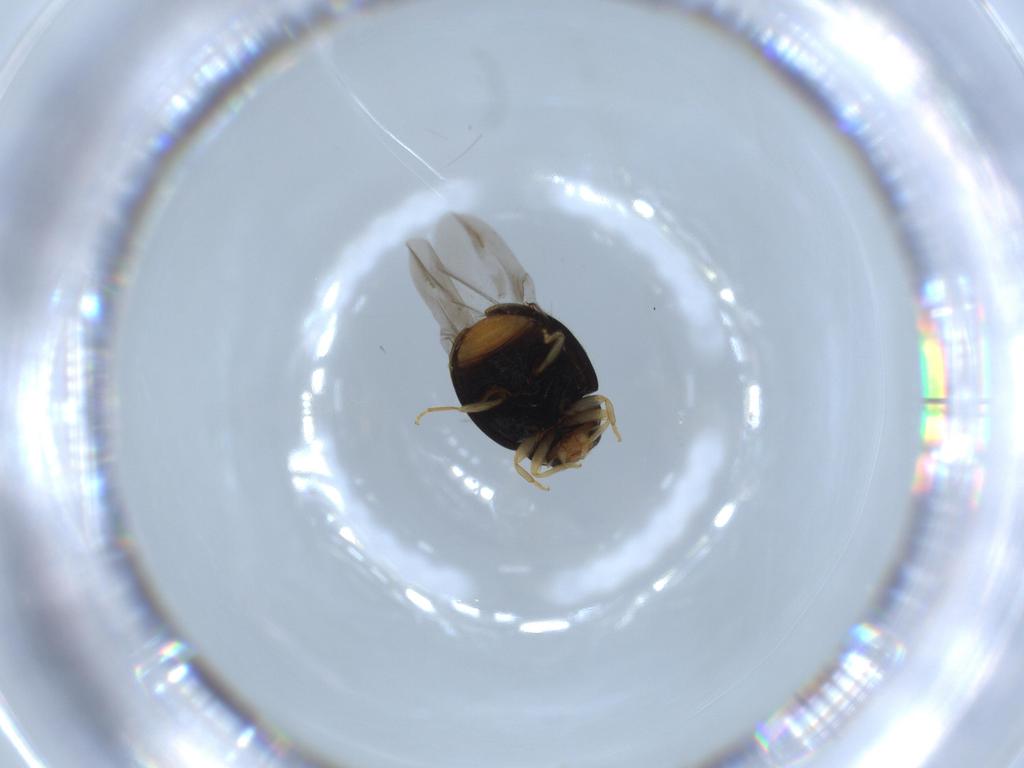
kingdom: Animalia
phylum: Arthropoda
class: Insecta
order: Coleoptera
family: Coccinellidae
